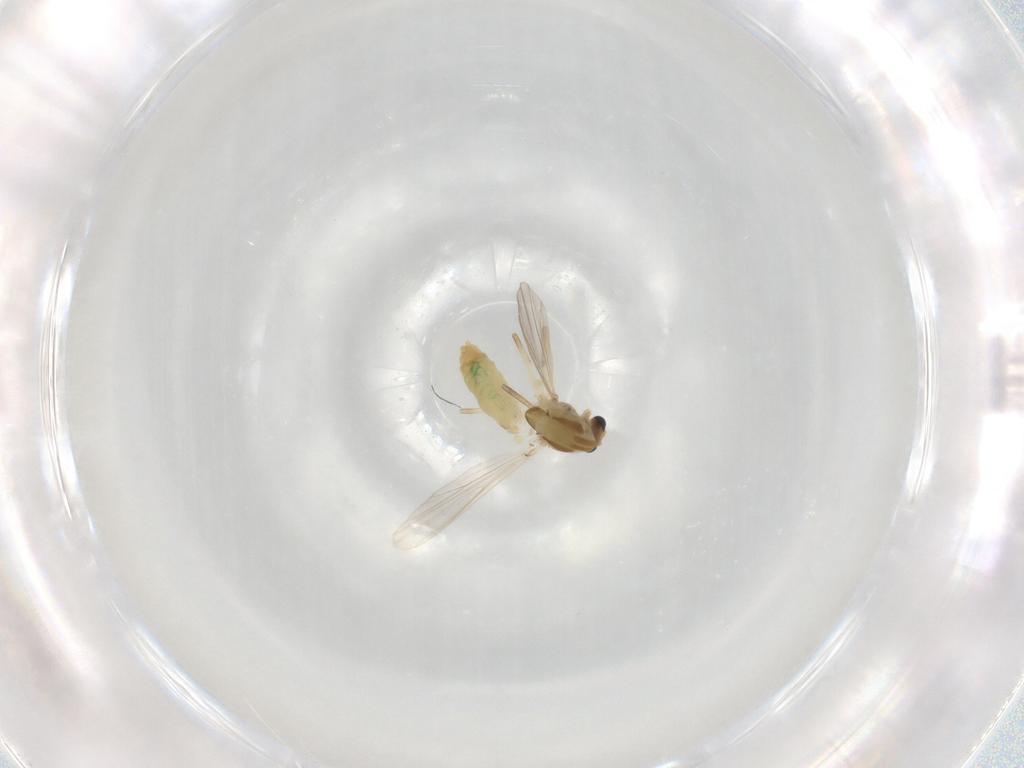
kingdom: Animalia
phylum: Arthropoda
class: Insecta
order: Diptera
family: Chironomidae
